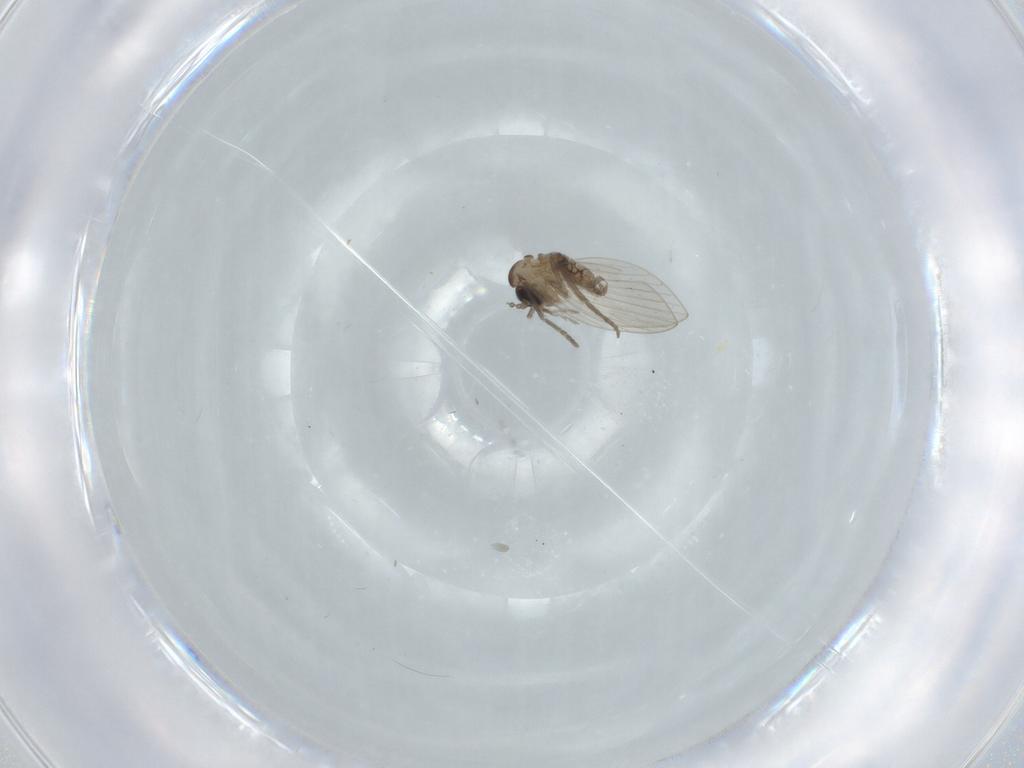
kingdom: Animalia
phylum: Arthropoda
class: Insecta
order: Diptera
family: Psychodidae
